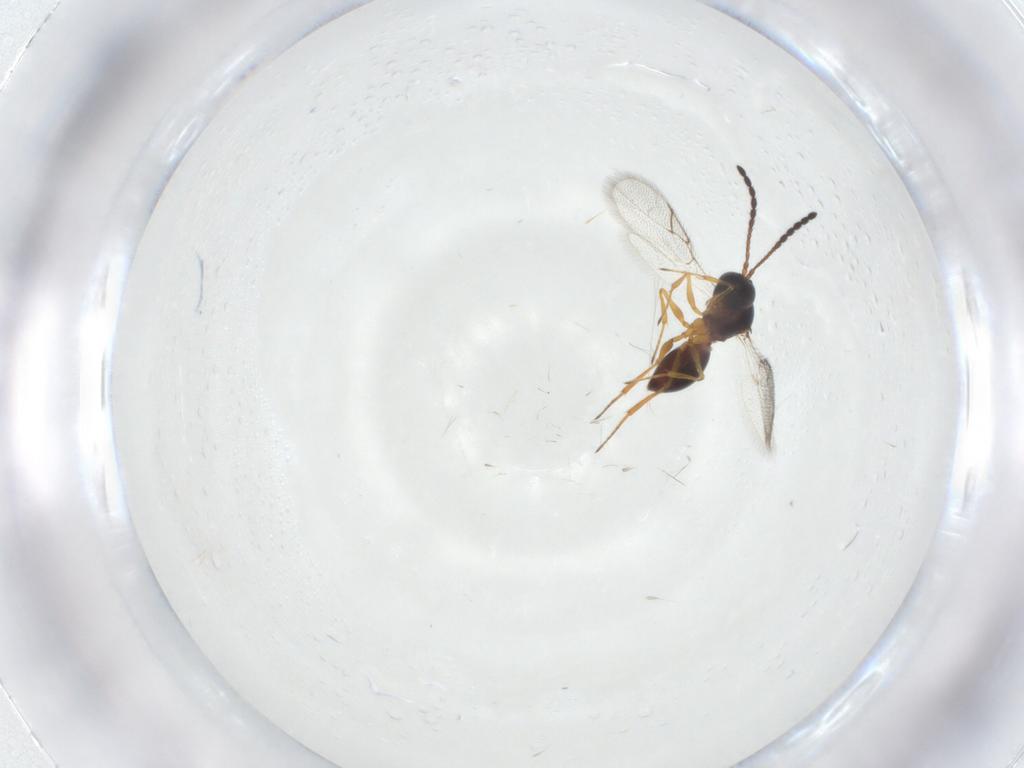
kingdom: Animalia
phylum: Arthropoda
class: Insecta
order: Hymenoptera
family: Figitidae
